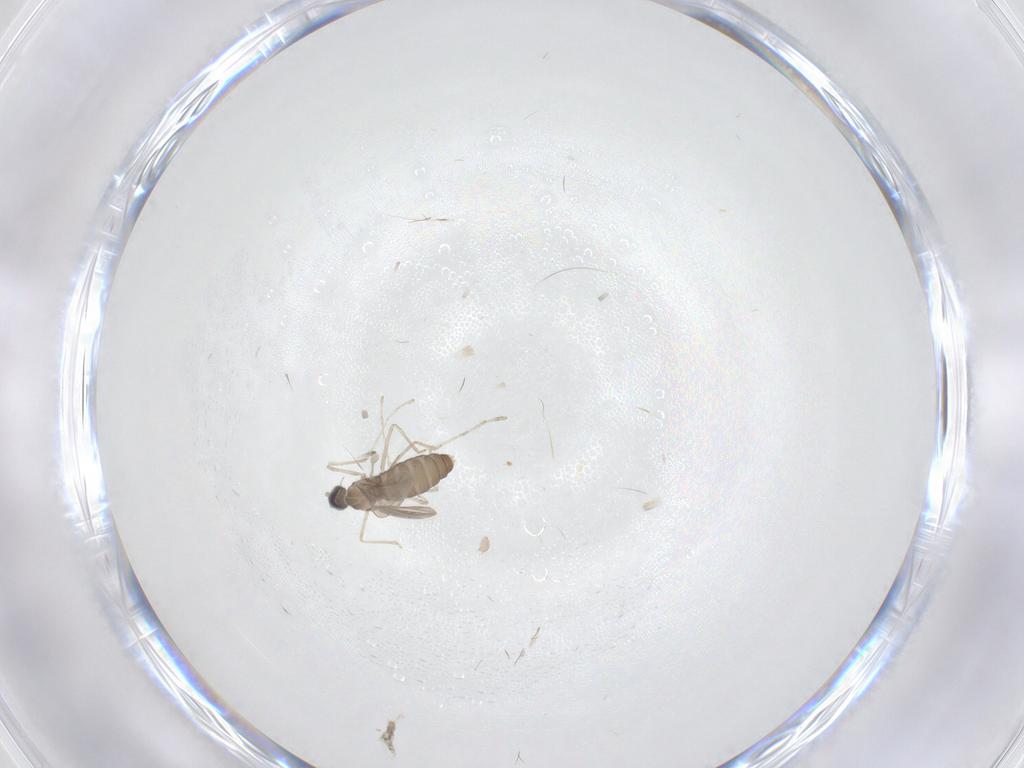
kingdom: Animalia
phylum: Arthropoda
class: Insecta
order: Diptera
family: Cecidomyiidae
